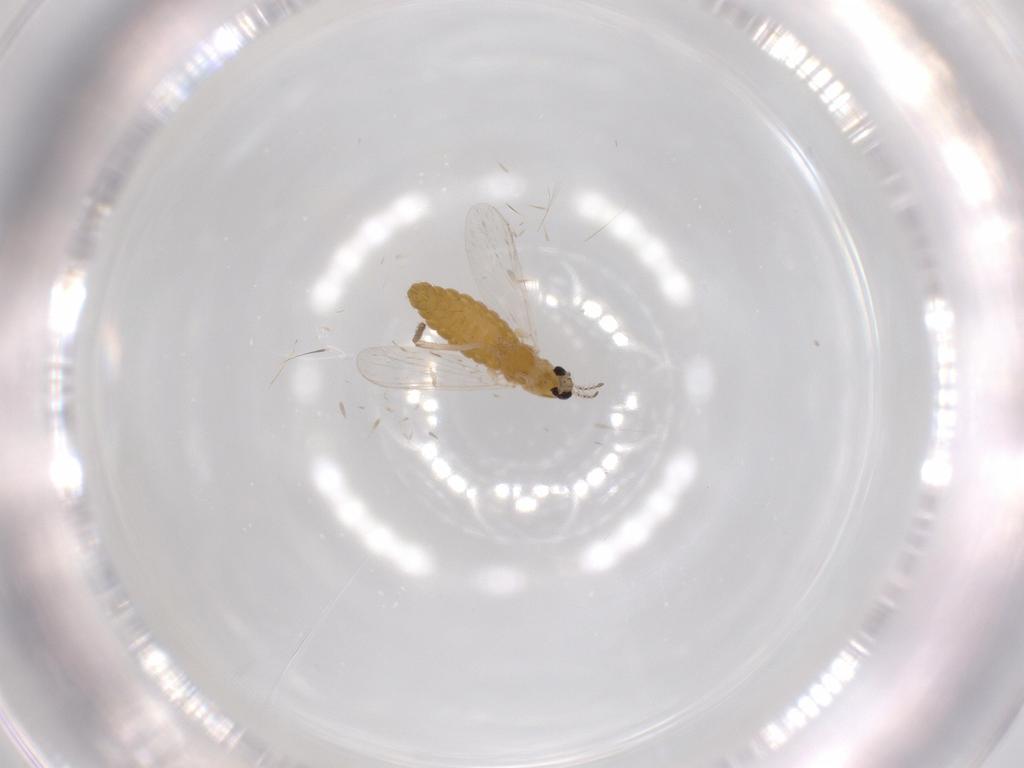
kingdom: Animalia
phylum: Arthropoda
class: Insecta
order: Diptera
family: Chironomidae
